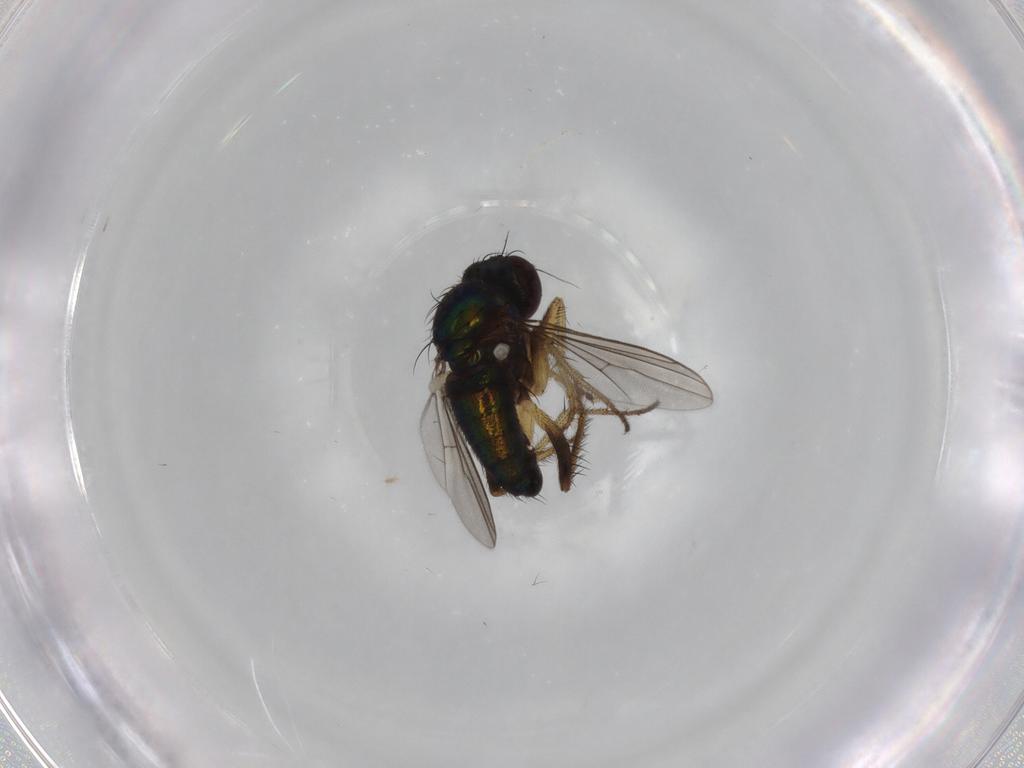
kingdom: Animalia
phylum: Arthropoda
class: Insecta
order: Diptera
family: Dolichopodidae
